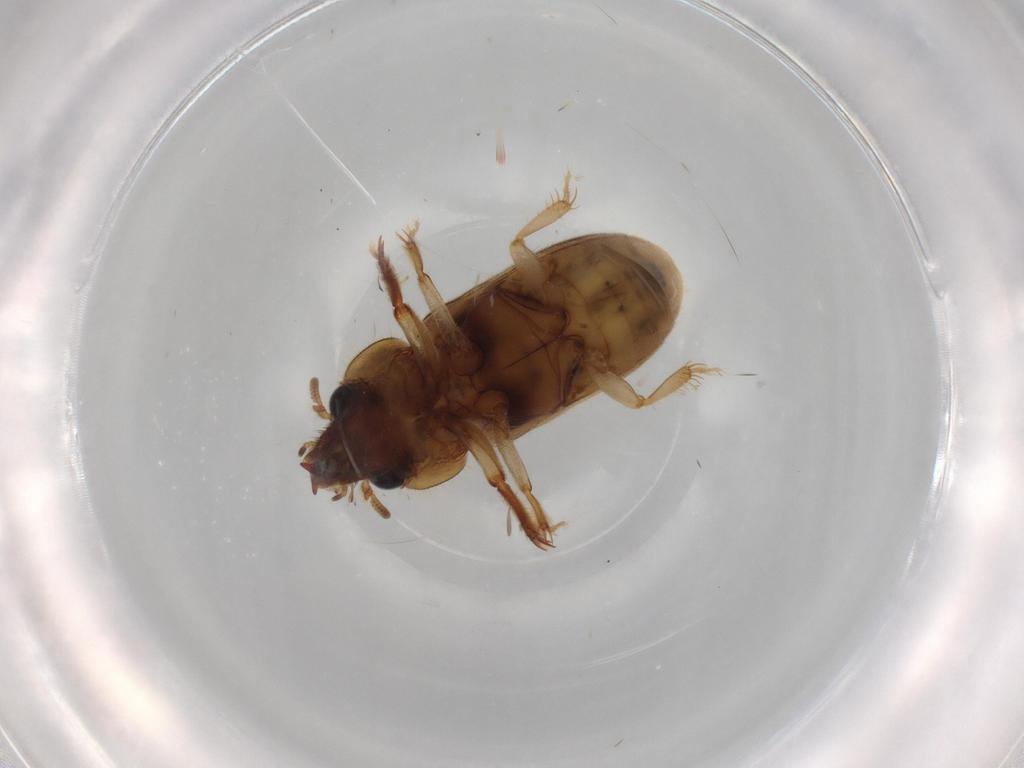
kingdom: Animalia
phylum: Arthropoda
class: Insecta
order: Coleoptera
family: Heteroceridae
